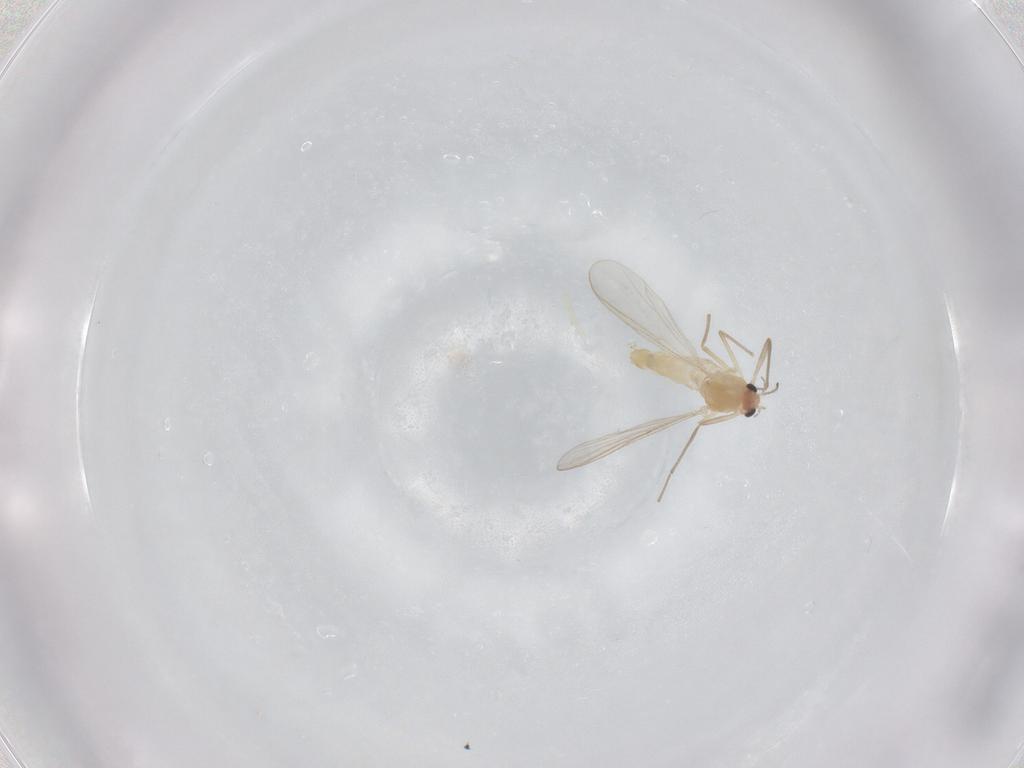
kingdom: Animalia
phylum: Arthropoda
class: Insecta
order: Diptera
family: Chironomidae
